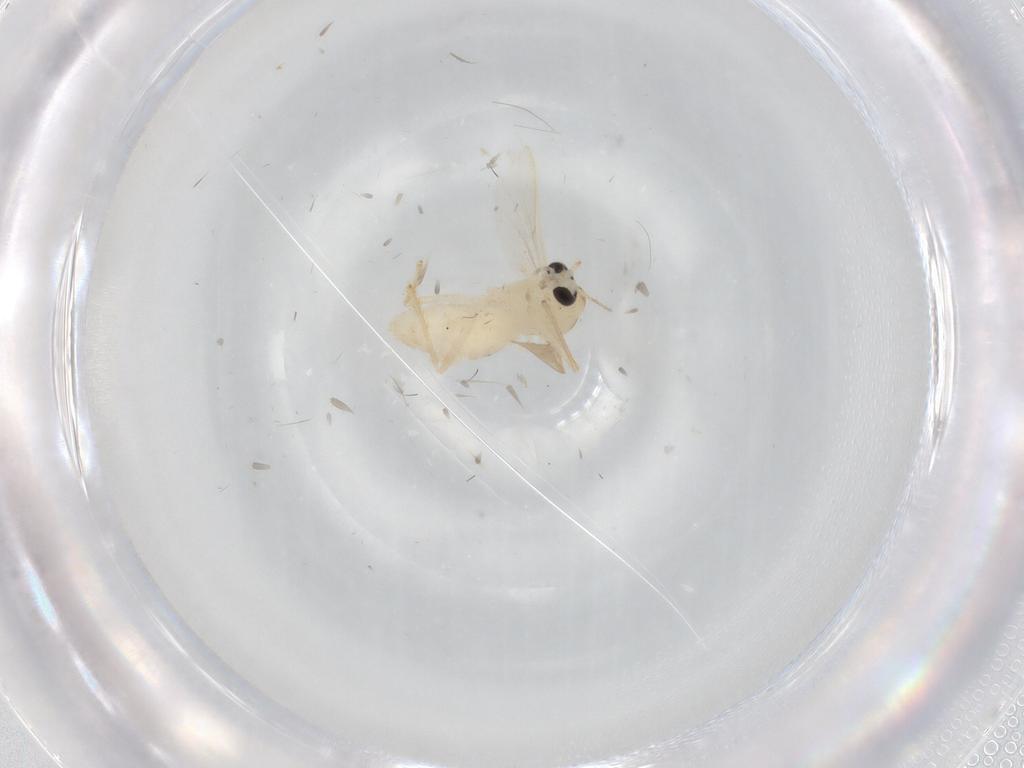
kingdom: Animalia
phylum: Arthropoda
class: Insecta
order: Diptera
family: Chironomidae
